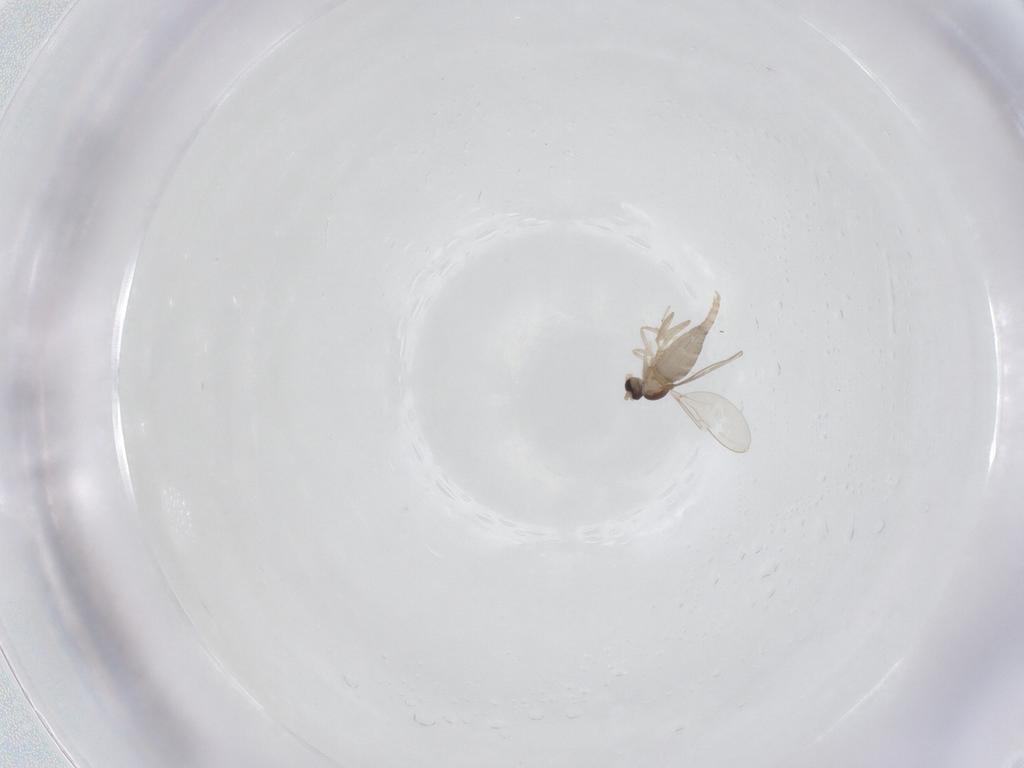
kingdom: Animalia
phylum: Arthropoda
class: Insecta
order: Diptera
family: Cecidomyiidae
